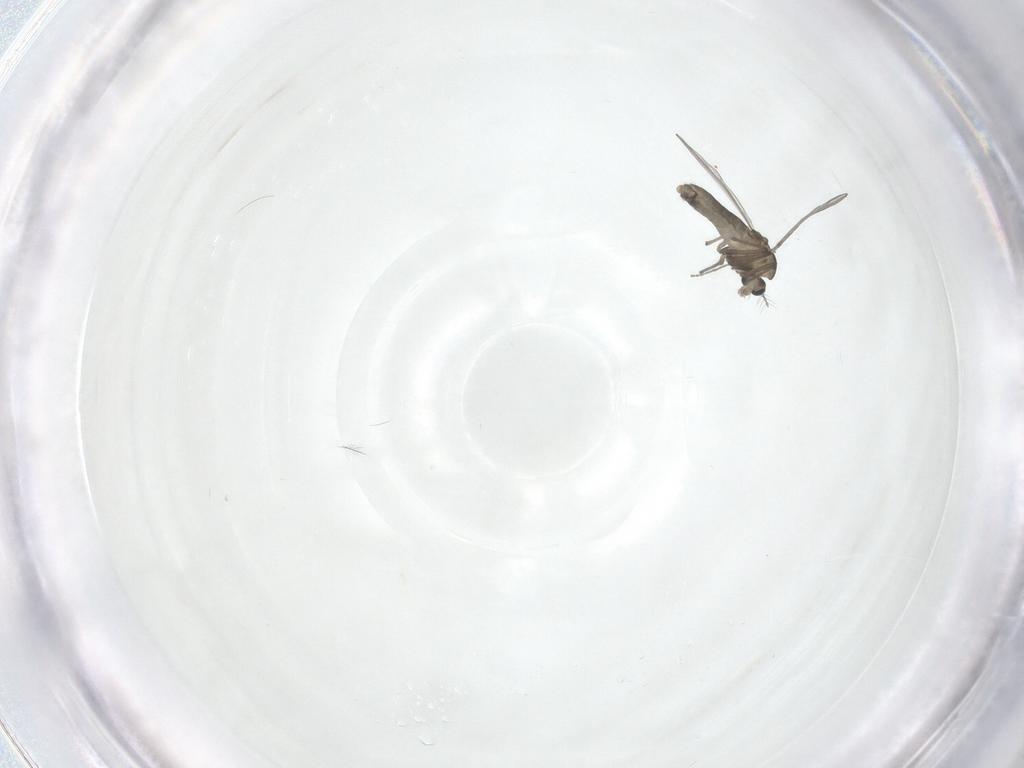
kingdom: Animalia
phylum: Arthropoda
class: Insecta
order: Diptera
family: Chironomidae
